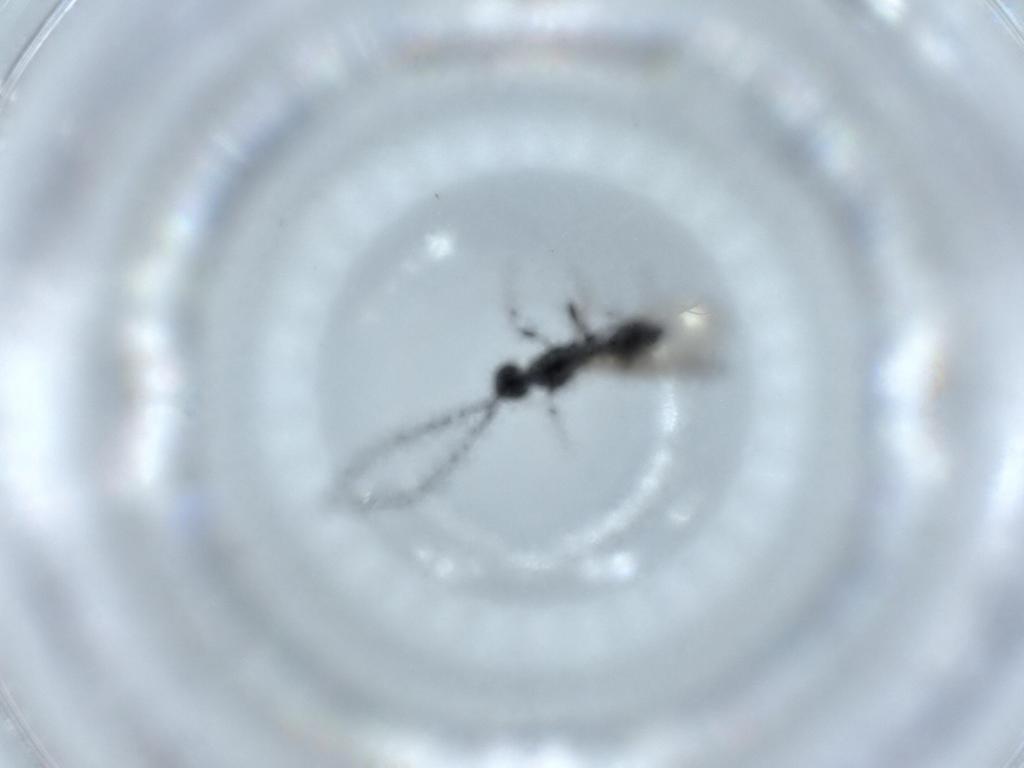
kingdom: Animalia
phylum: Arthropoda
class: Insecta
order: Hymenoptera
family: Diapriidae
